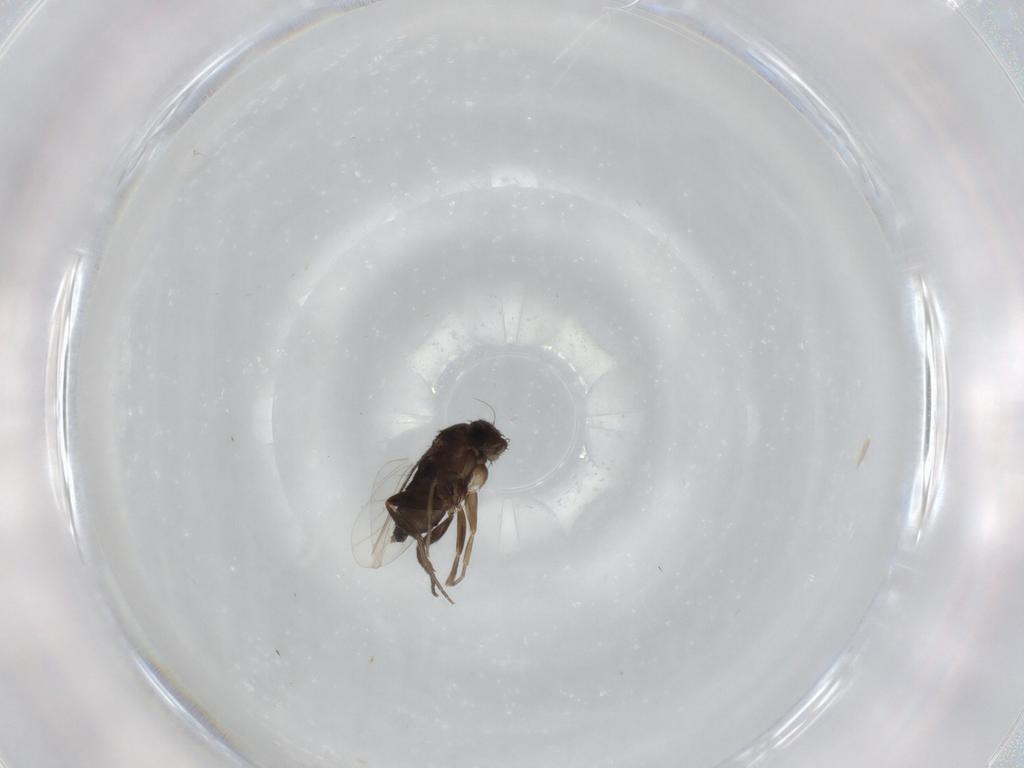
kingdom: Animalia
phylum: Arthropoda
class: Insecta
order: Diptera
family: Phoridae
